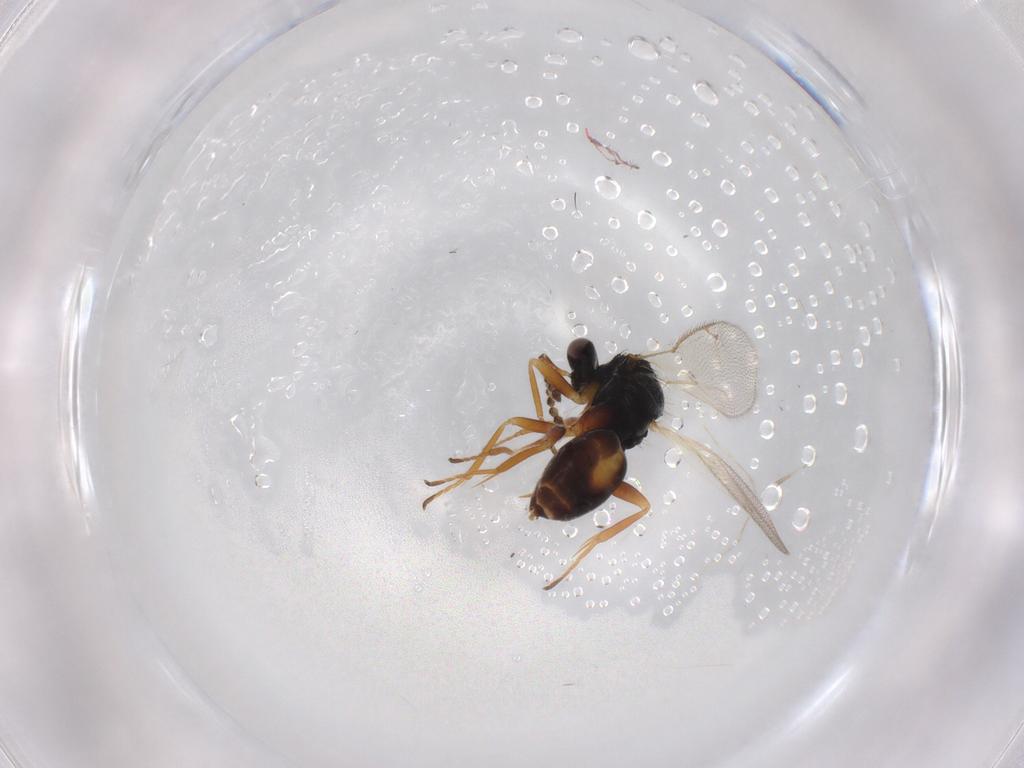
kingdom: Animalia
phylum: Arthropoda
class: Insecta
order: Hymenoptera
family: Eulophidae
